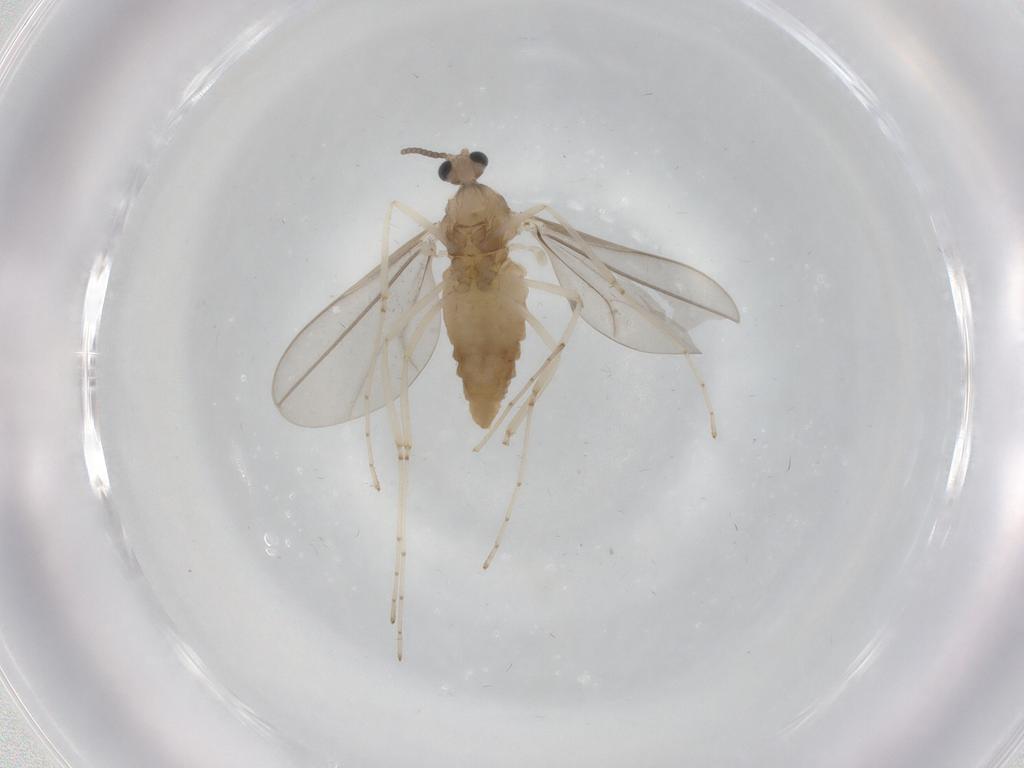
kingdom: Animalia
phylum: Arthropoda
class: Insecta
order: Diptera
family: Cecidomyiidae
